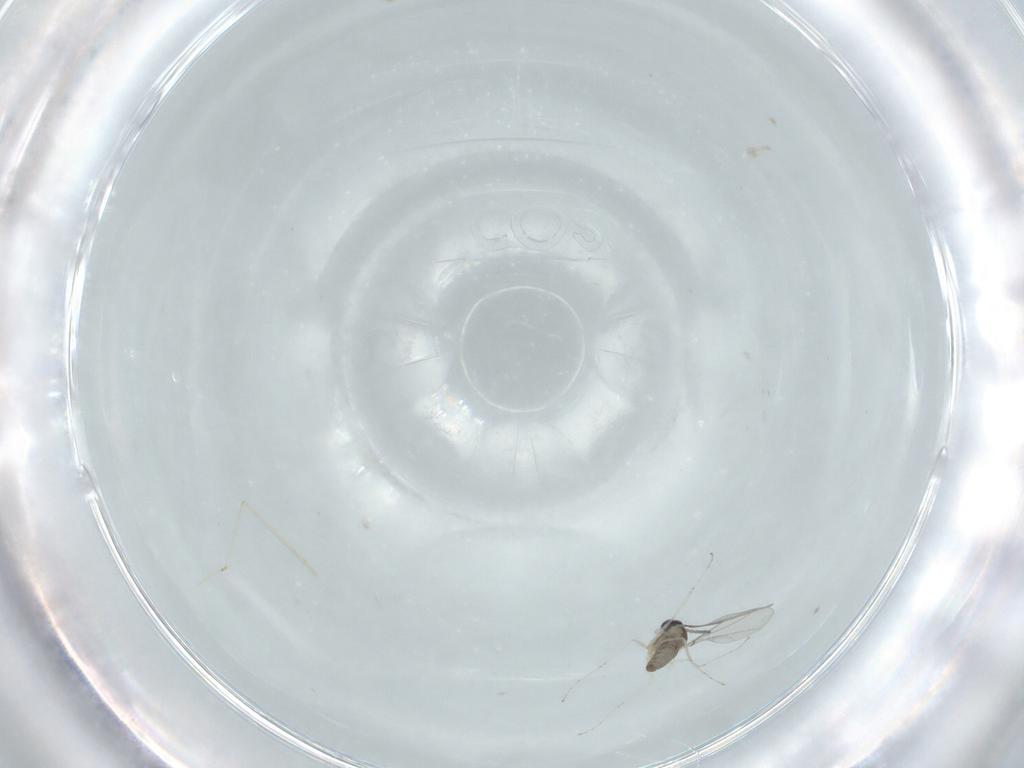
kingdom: Animalia
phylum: Arthropoda
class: Insecta
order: Diptera
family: Cecidomyiidae
